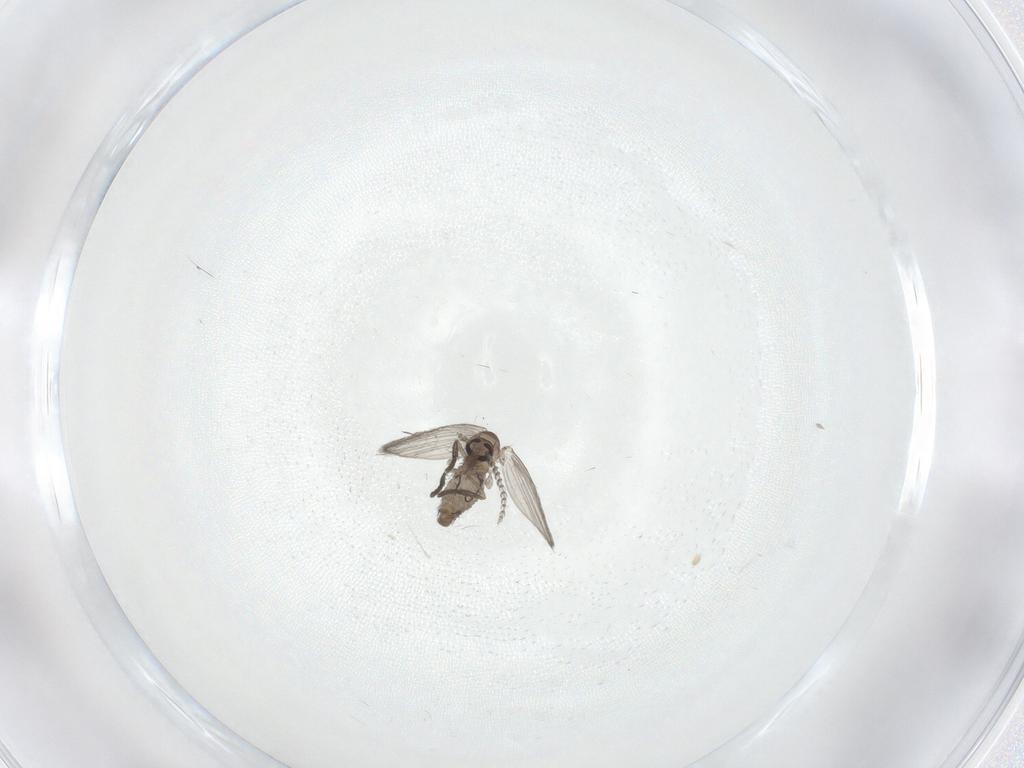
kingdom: Animalia
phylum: Arthropoda
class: Insecta
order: Diptera
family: Psychodidae
